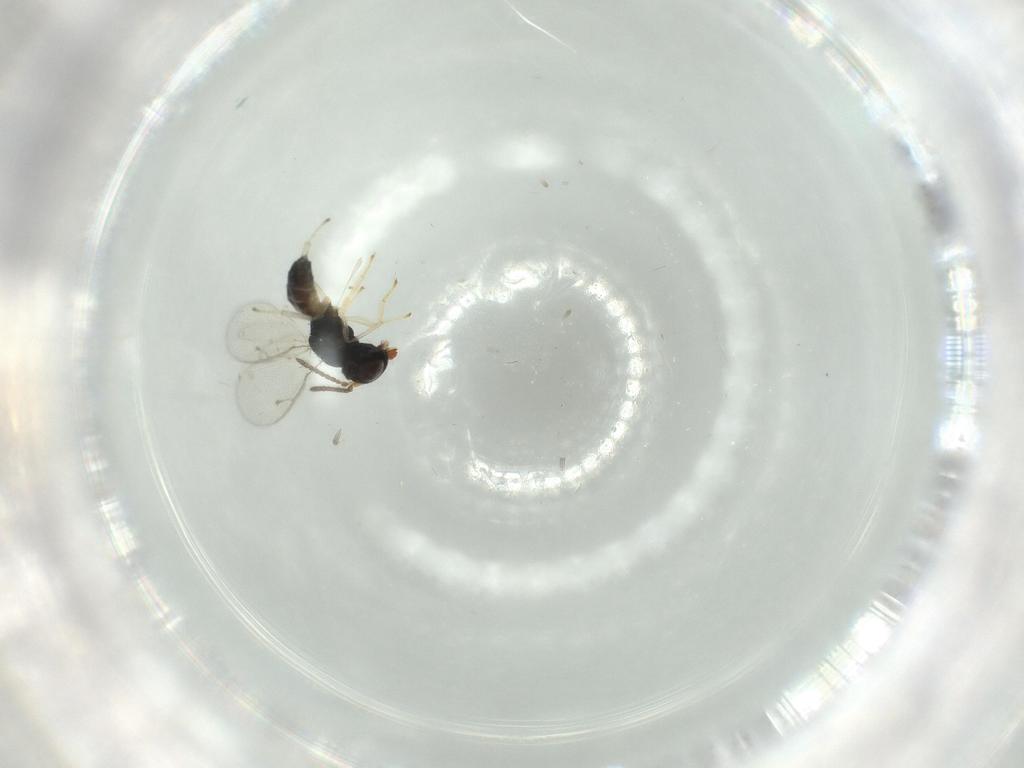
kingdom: Animalia
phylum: Arthropoda
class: Insecta
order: Hymenoptera
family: Pteromalidae
